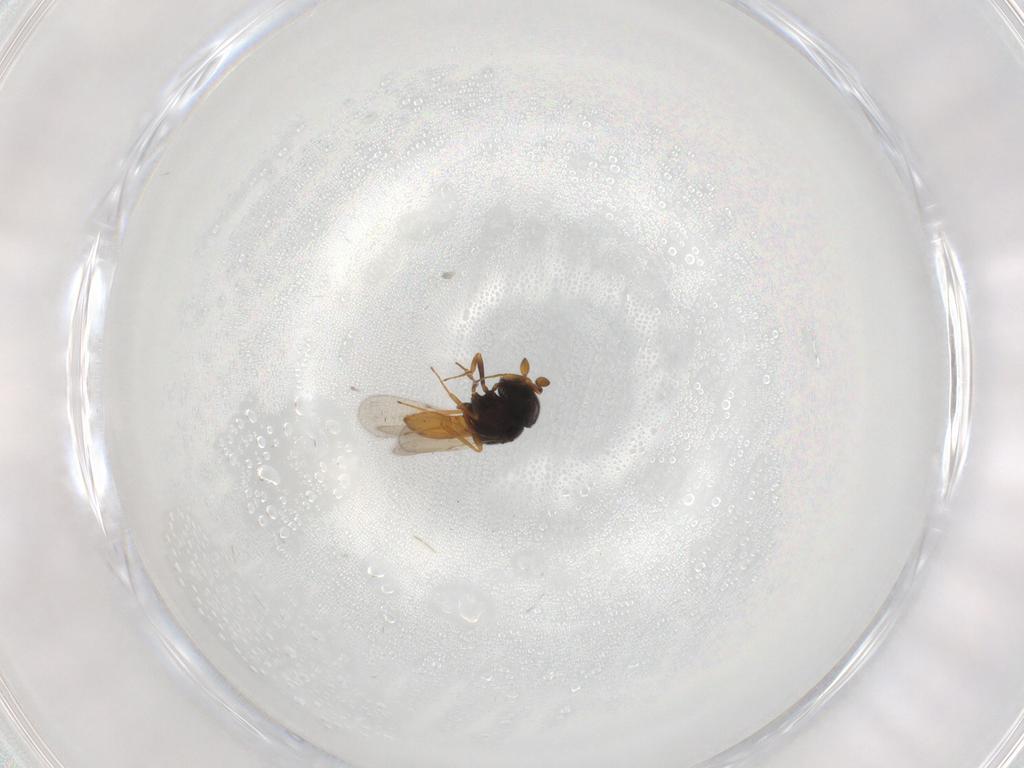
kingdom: Animalia
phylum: Arthropoda
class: Insecta
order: Hymenoptera
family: Scelionidae
